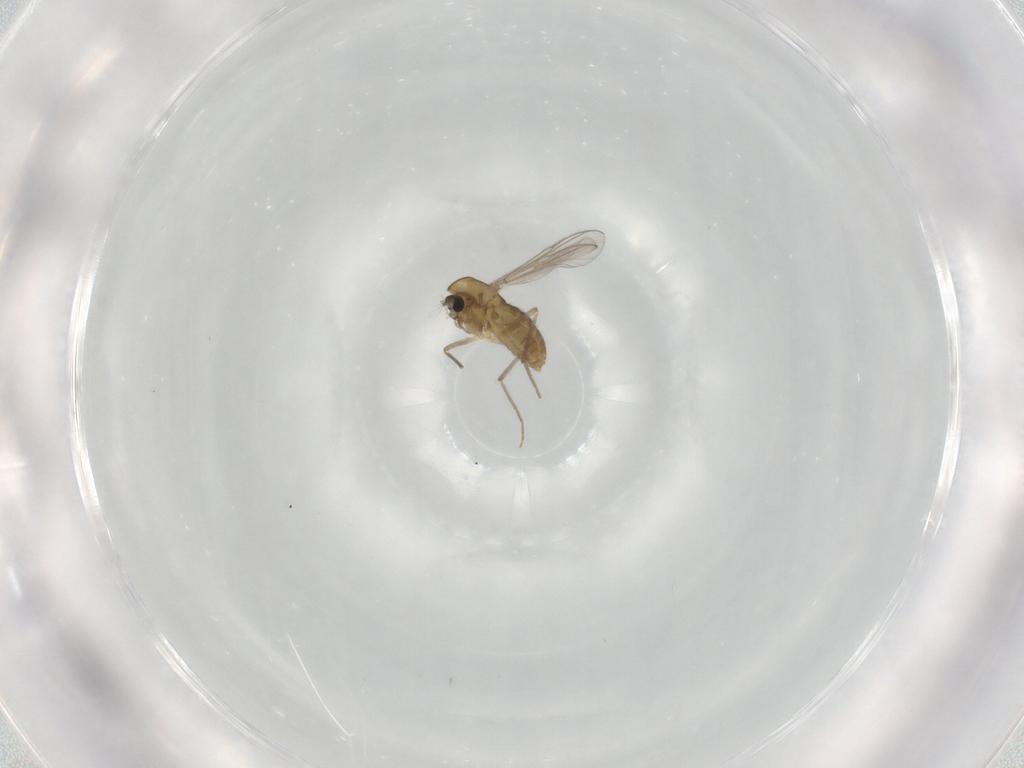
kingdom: Animalia
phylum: Arthropoda
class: Insecta
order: Diptera
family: Chironomidae
